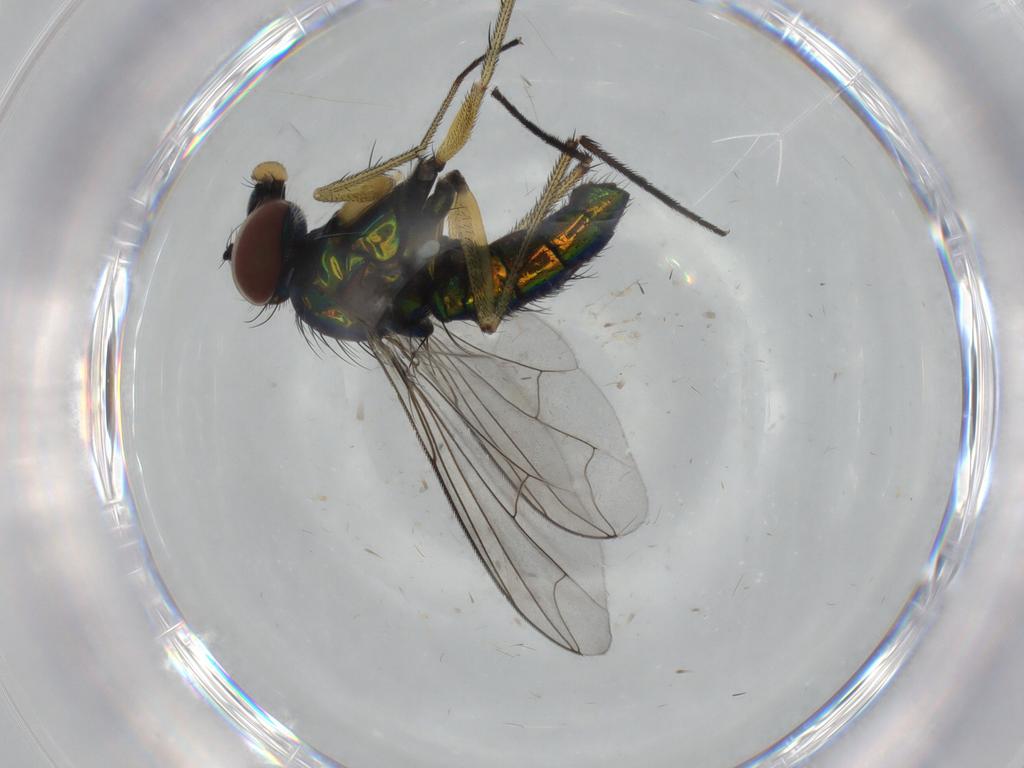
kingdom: Animalia
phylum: Arthropoda
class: Insecta
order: Diptera
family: Dolichopodidae
